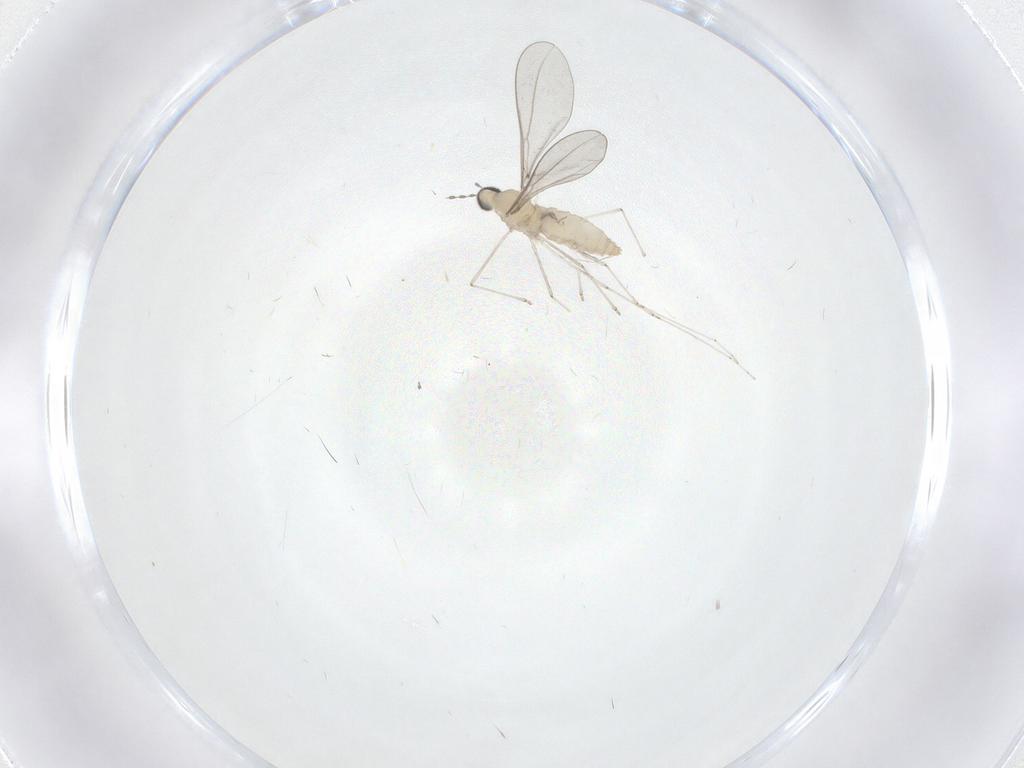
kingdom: Animalia
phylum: Arthropoda
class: Insecta
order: Diptera
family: Cecidomyiidae
